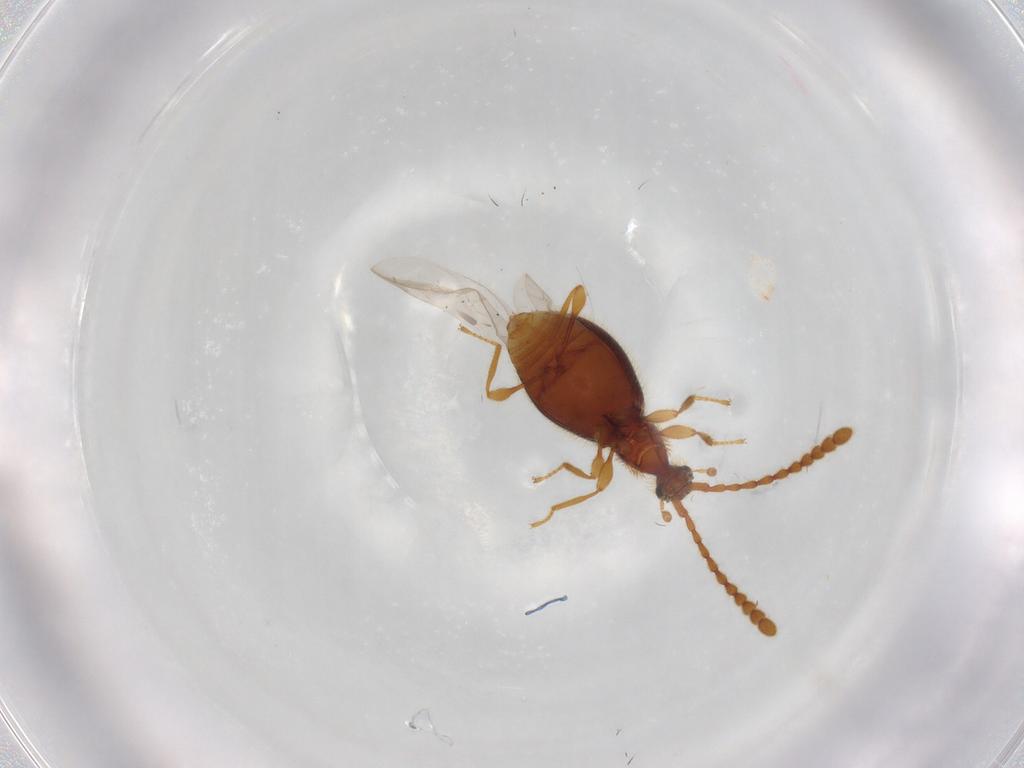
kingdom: Animalia
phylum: Arthropoda
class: Insecta
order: Coleoptera
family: Staphylinidae
